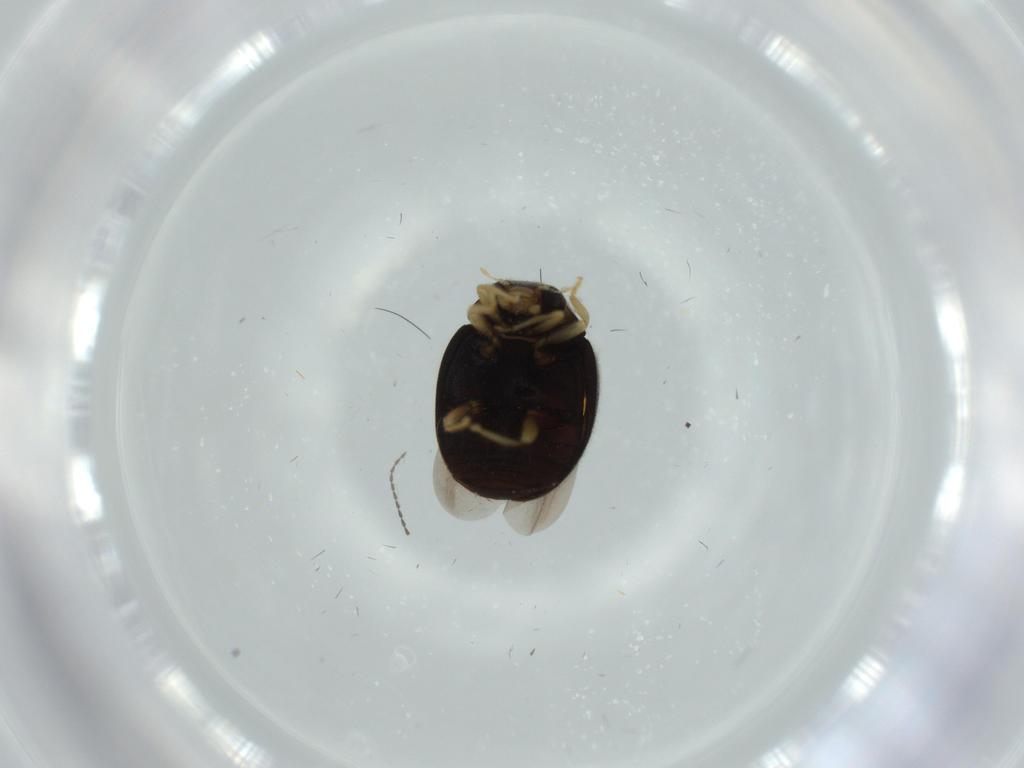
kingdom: Animalia
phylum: Arthropoda
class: Insecta
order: Coleoptera
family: Coccinellidae
